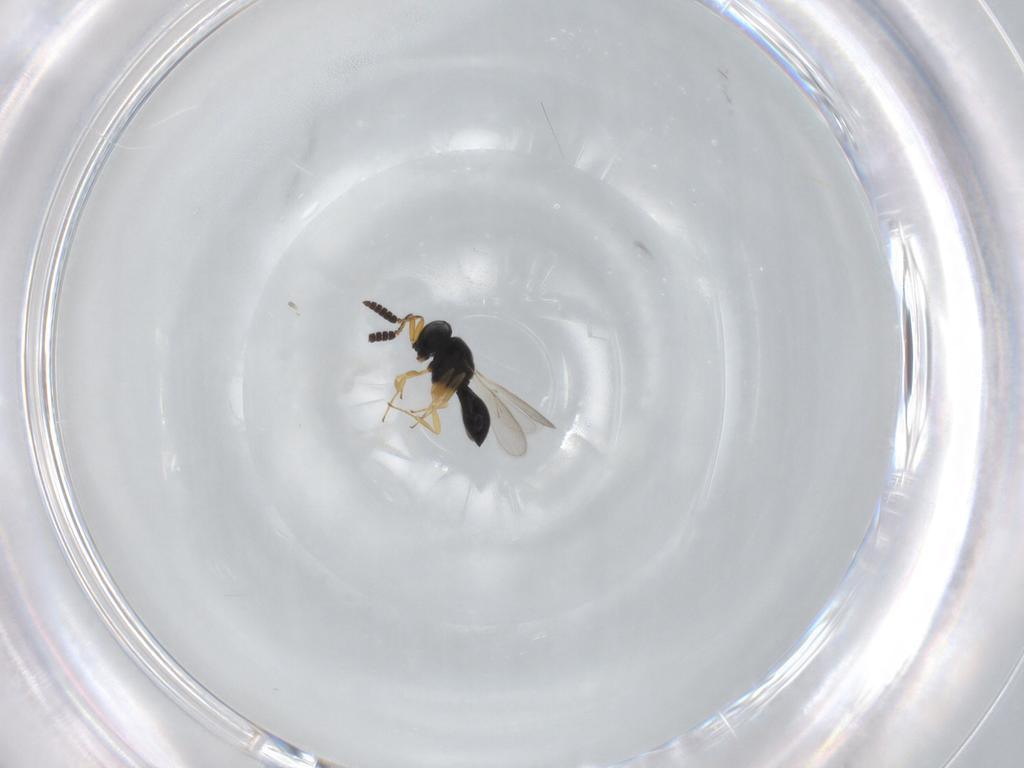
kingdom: Animalia
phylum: Arthropoda
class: Insecta
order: Hymenoptera
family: Scelionidae
